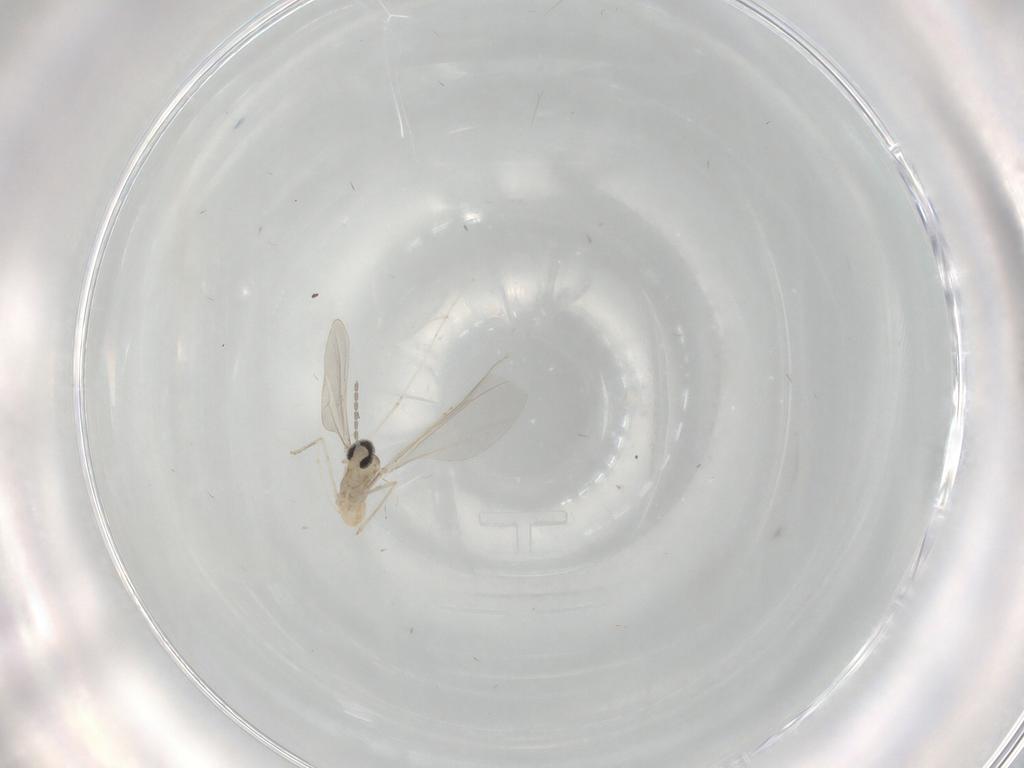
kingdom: Animalia
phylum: Arthropoda
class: Insecta
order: Diptera
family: Cecidomyiidae
